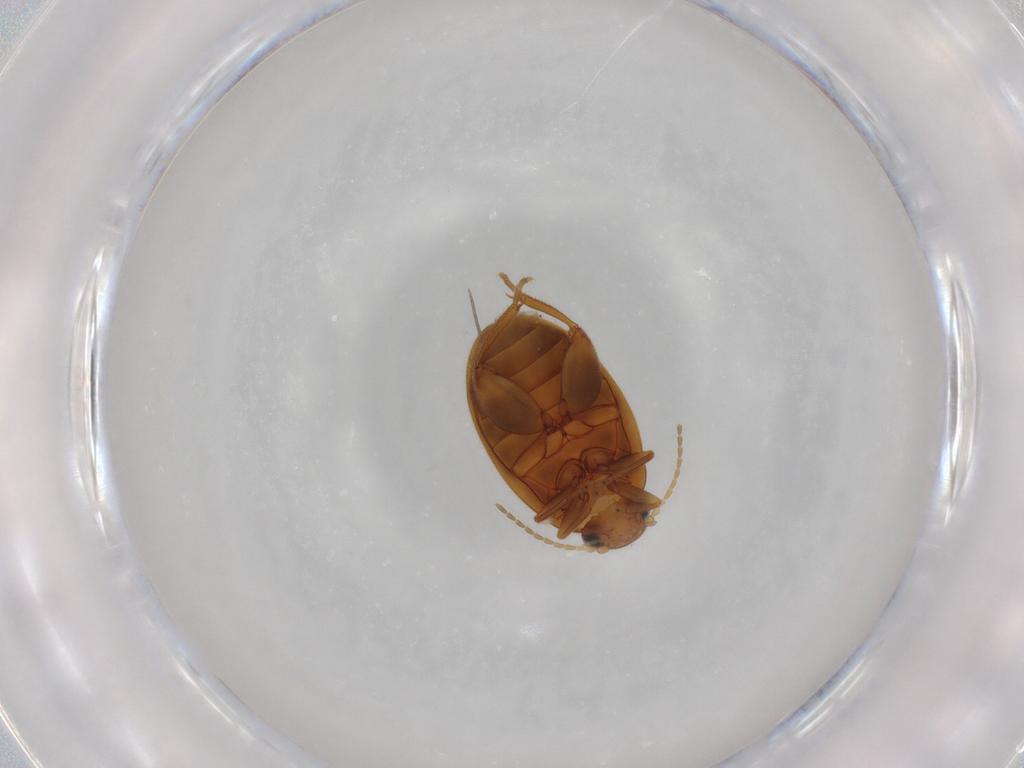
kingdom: Animalia
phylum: Arthropoda
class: Insecta
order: Coleoptera
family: Scirtidae
